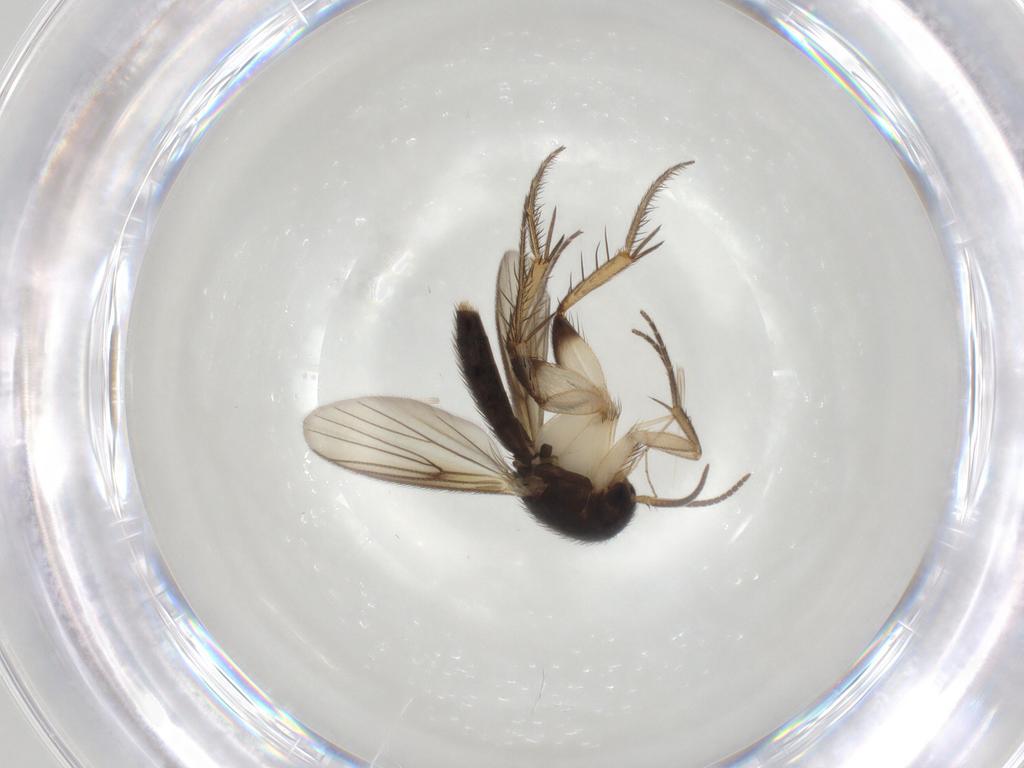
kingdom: Animalia
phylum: Arthropoda
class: Insecta
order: Diptera
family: Mycetophilidae
